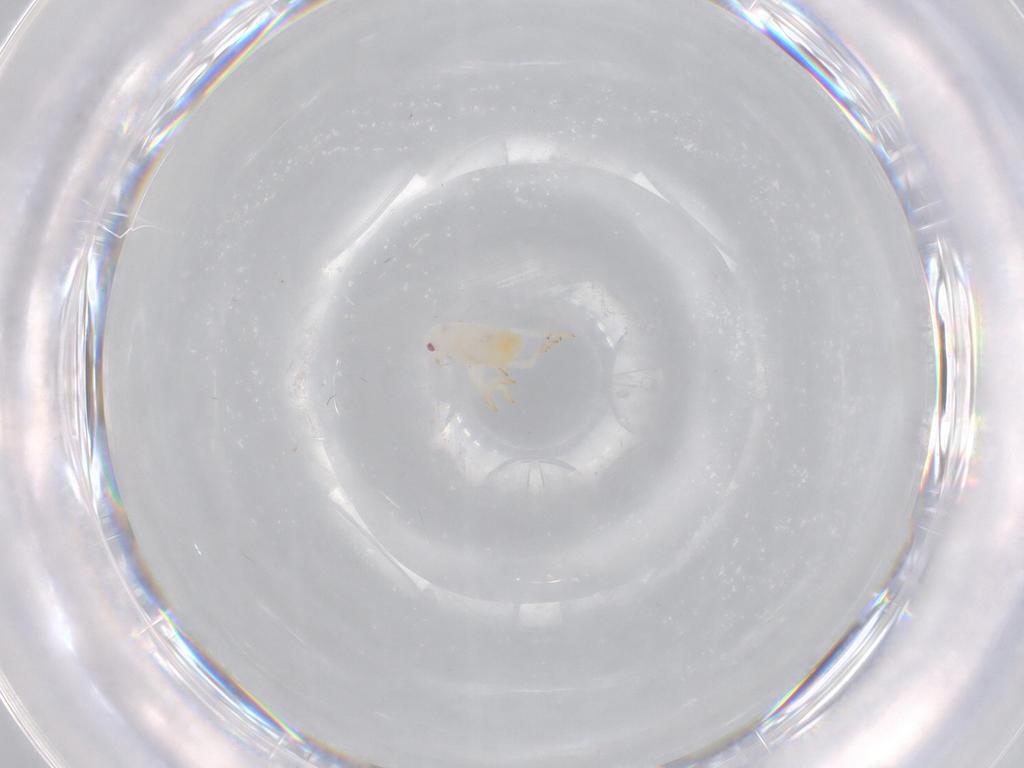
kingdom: Animalia
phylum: Arthropoda
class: Insecta
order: Hemiptera
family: Flatidae
